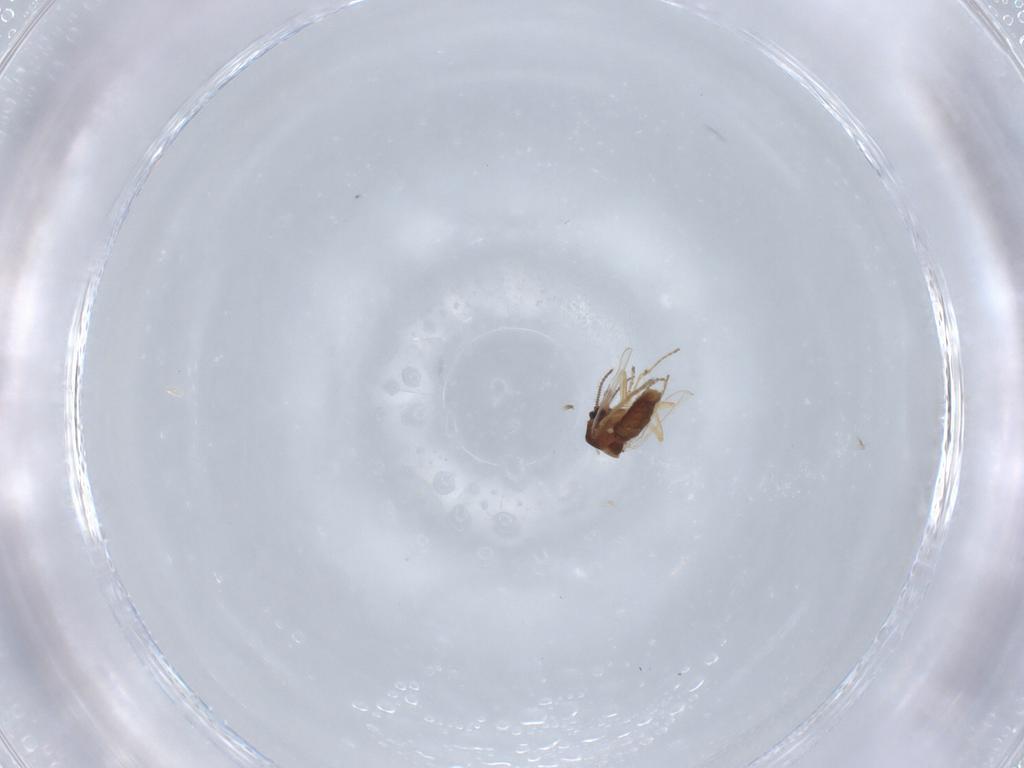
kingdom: Animalia
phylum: Arthropoda
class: Insecta
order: Diptera
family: Ceratopogonidae
